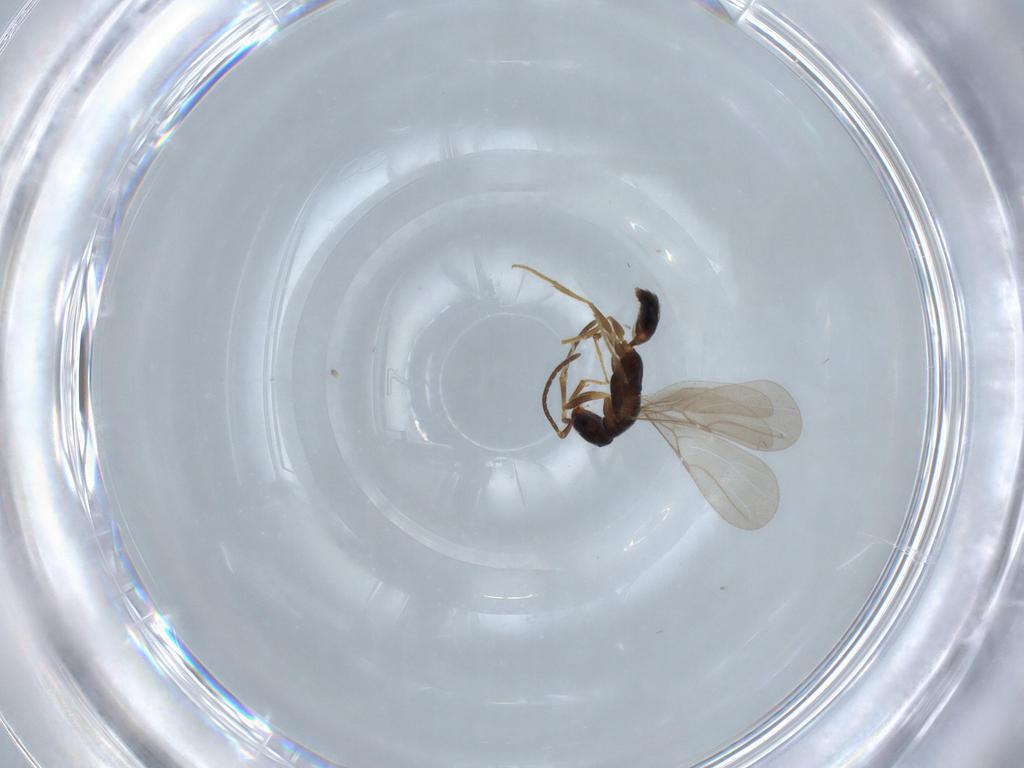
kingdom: Animalia
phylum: Arthropoda
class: Insecta
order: Hymenoptera
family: Bethylidae
